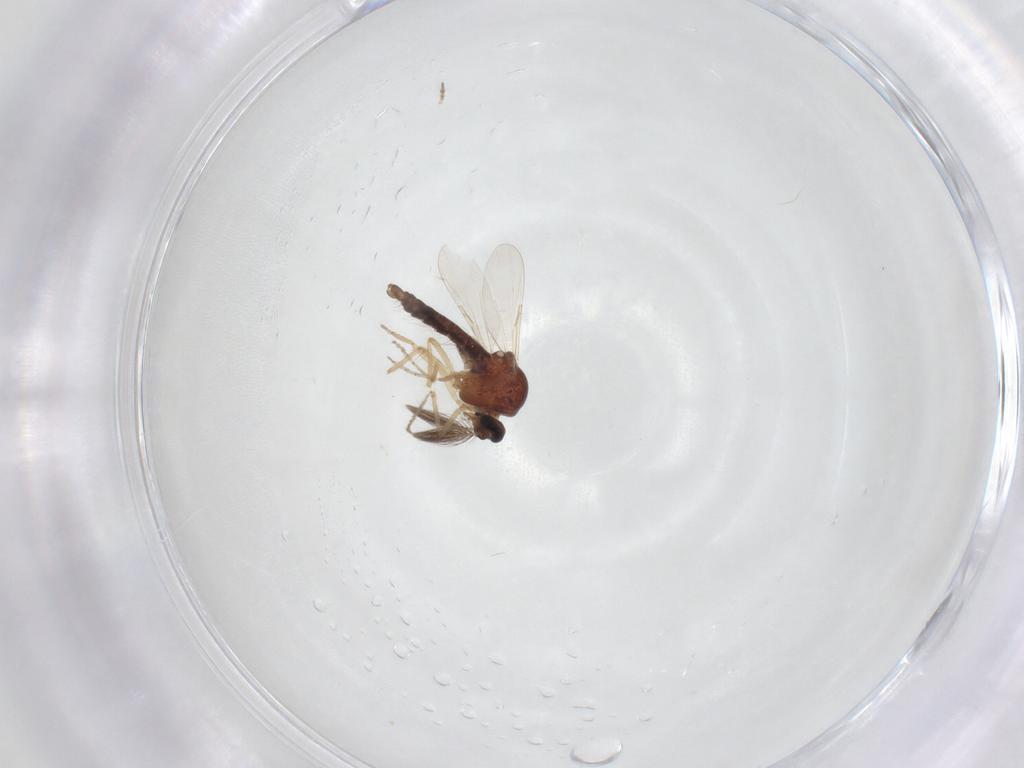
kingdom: Animalia
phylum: Arthropoda
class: Insecta
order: Diptera
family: Ceratopogonidae
